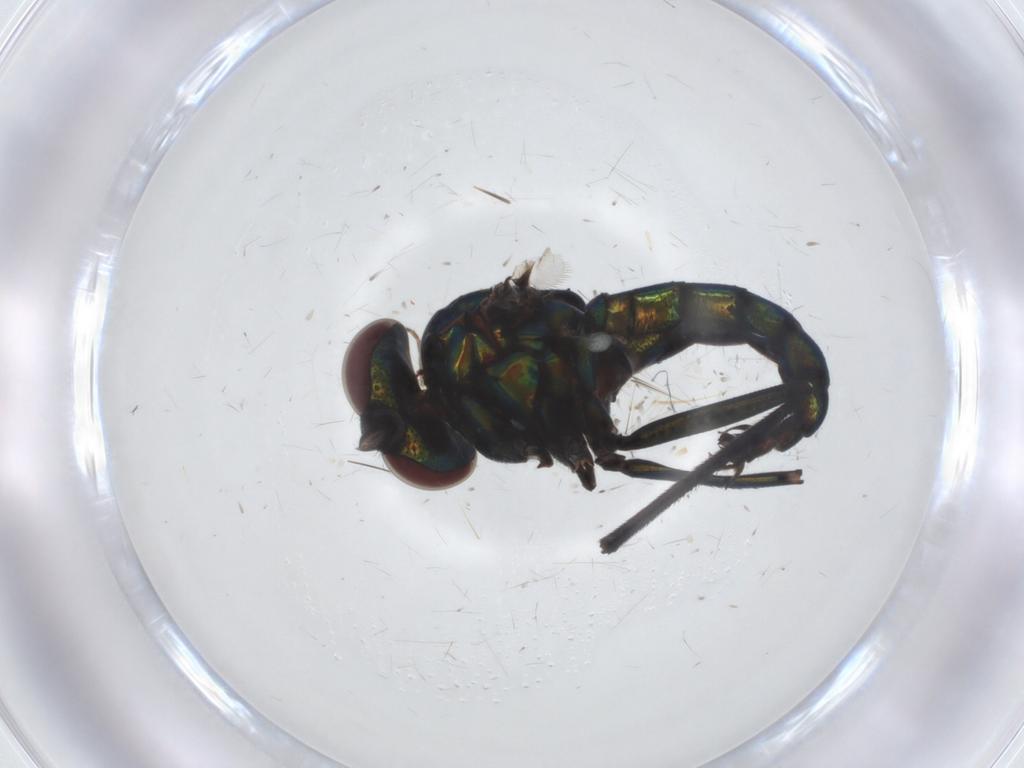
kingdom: Animalia
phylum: Arthropoda
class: Insecta
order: Diptera
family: Dolichopodidae
